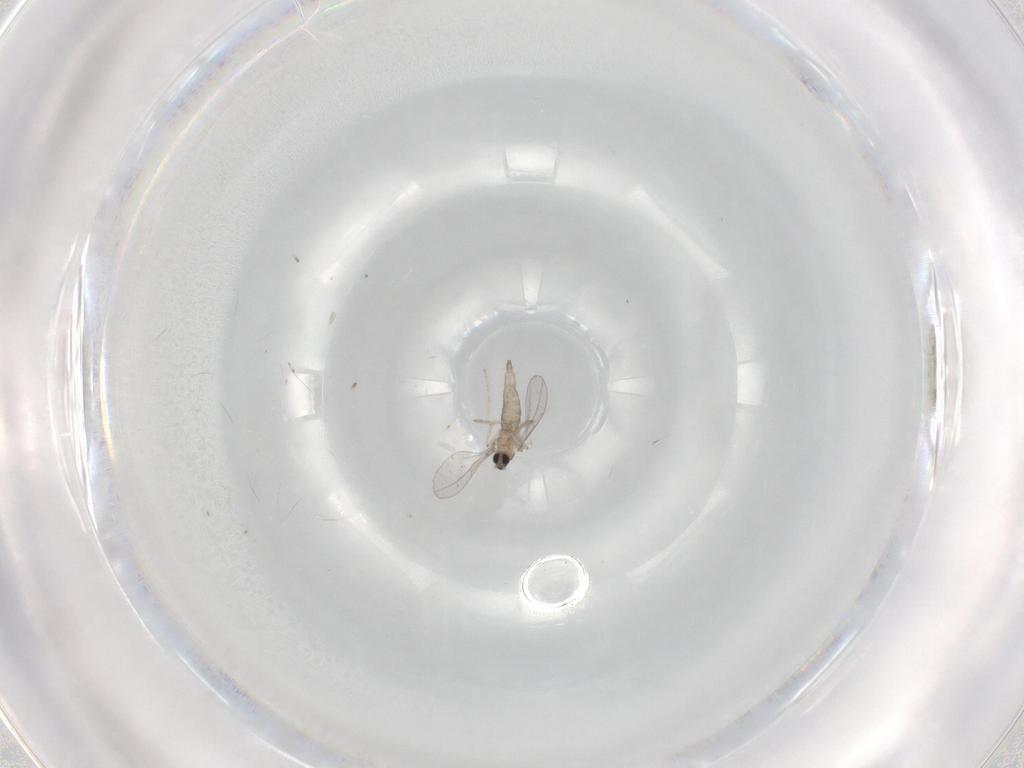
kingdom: Animalia
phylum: Arthropoda
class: Insecta
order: Diptera
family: Cecidomyiidae
